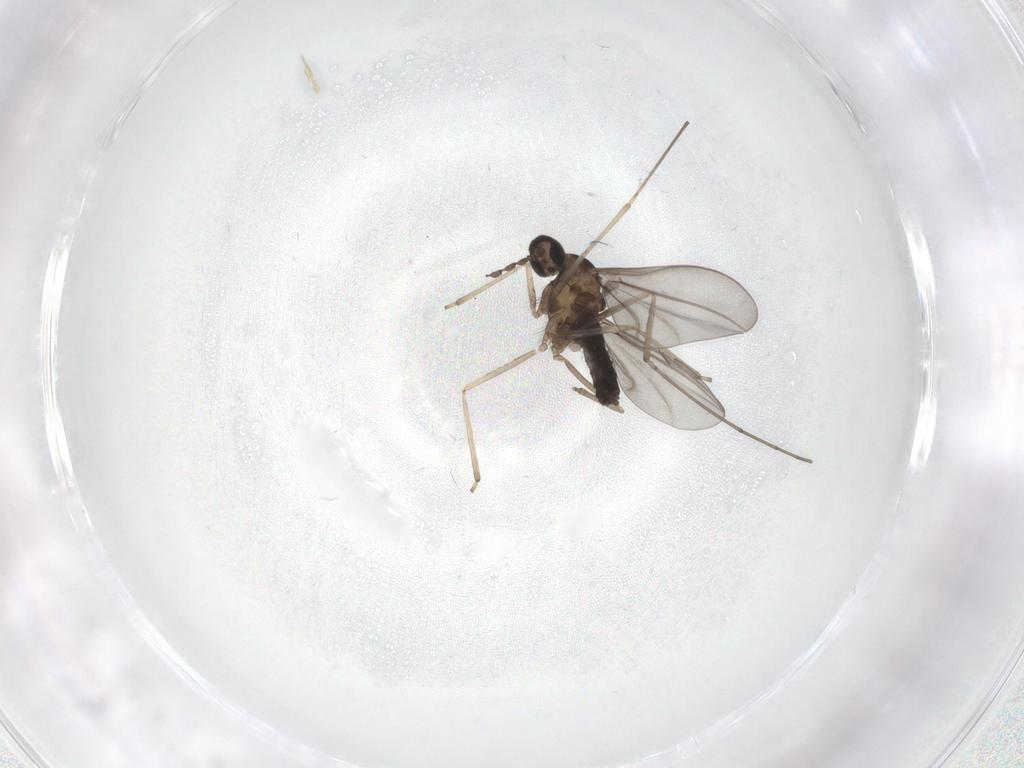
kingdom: Animalia
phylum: Arthropoda
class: Insecta
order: Diptera
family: Cecidomyiidae
